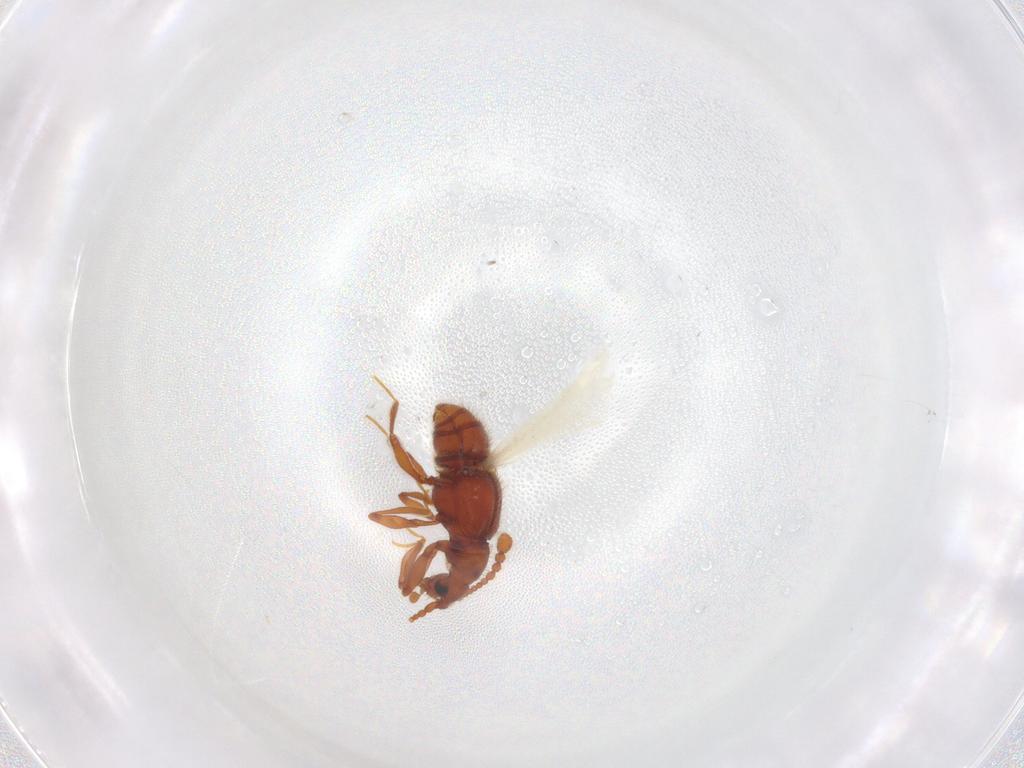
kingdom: Animalia
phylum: Arthropoda
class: Insecta
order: Coleoptera
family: Staphylinidae
